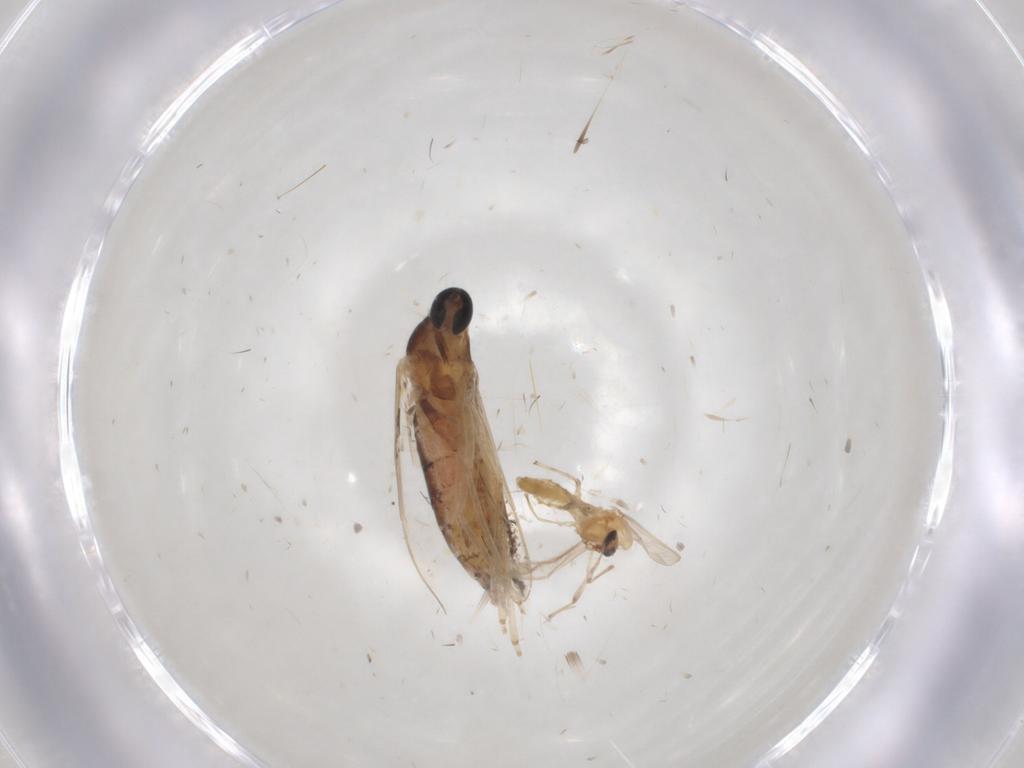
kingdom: Animalia
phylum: Arthropoda
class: Insecta
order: Diptera
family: Cecidomyiidae
